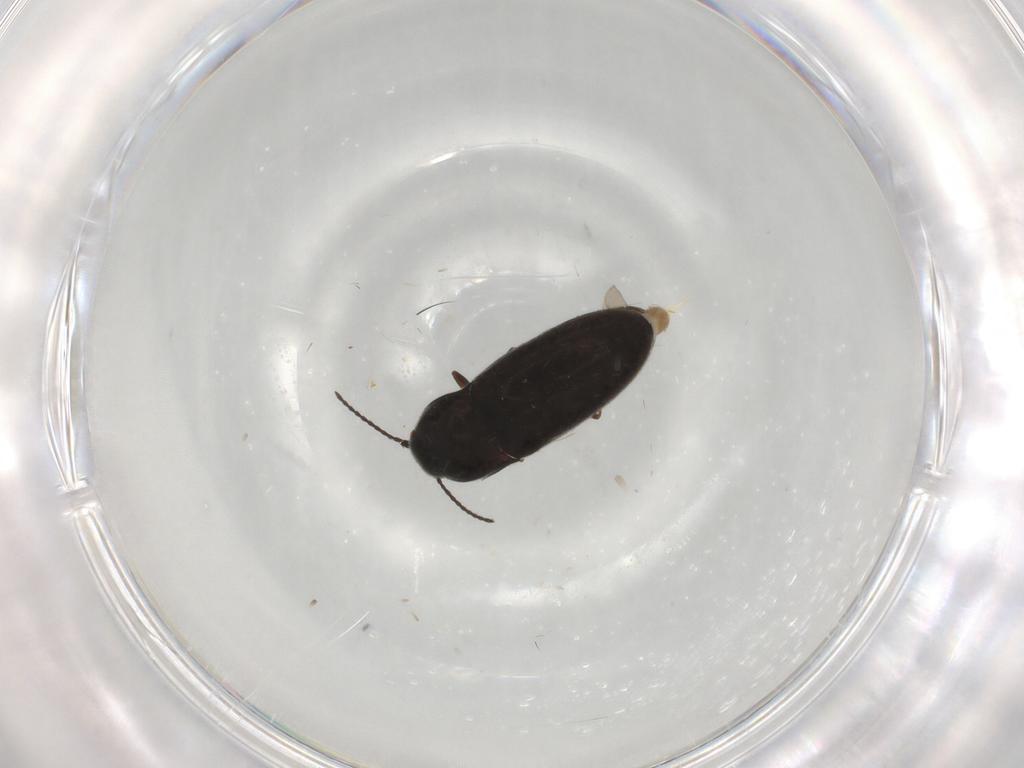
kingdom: Animalia
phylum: Arthropoda
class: Insecta
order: Coleoptera
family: Elateridae
